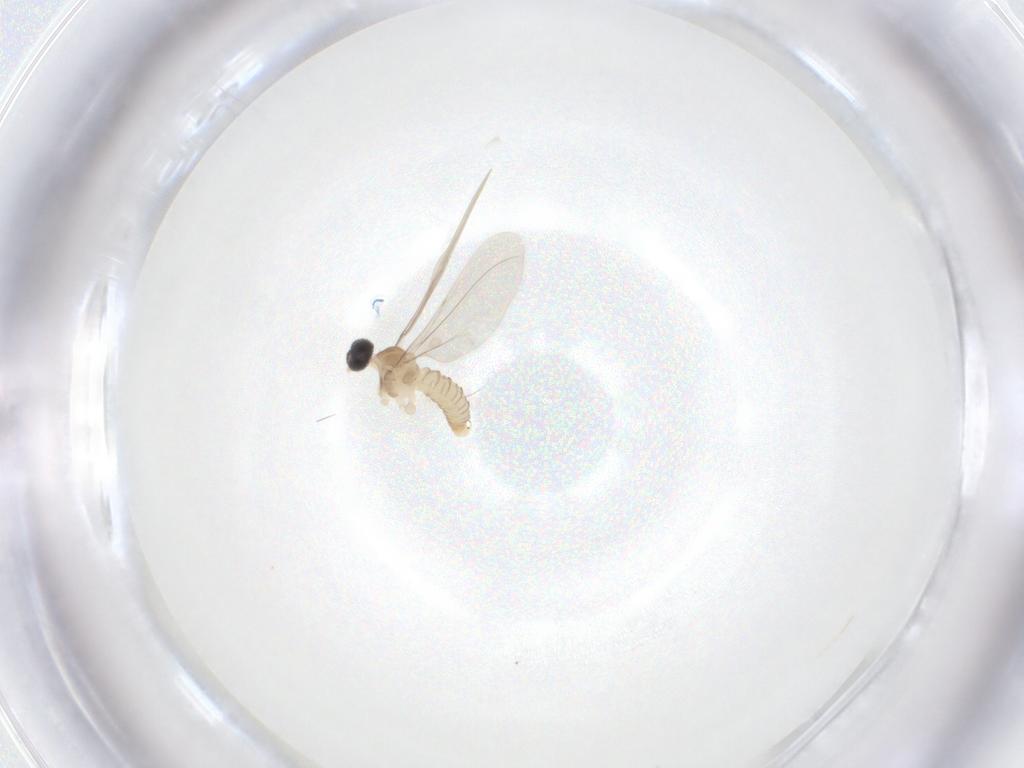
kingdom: Animalia
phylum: Arthropoda
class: Insecta
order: Diptera
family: Cecidomyiidae
